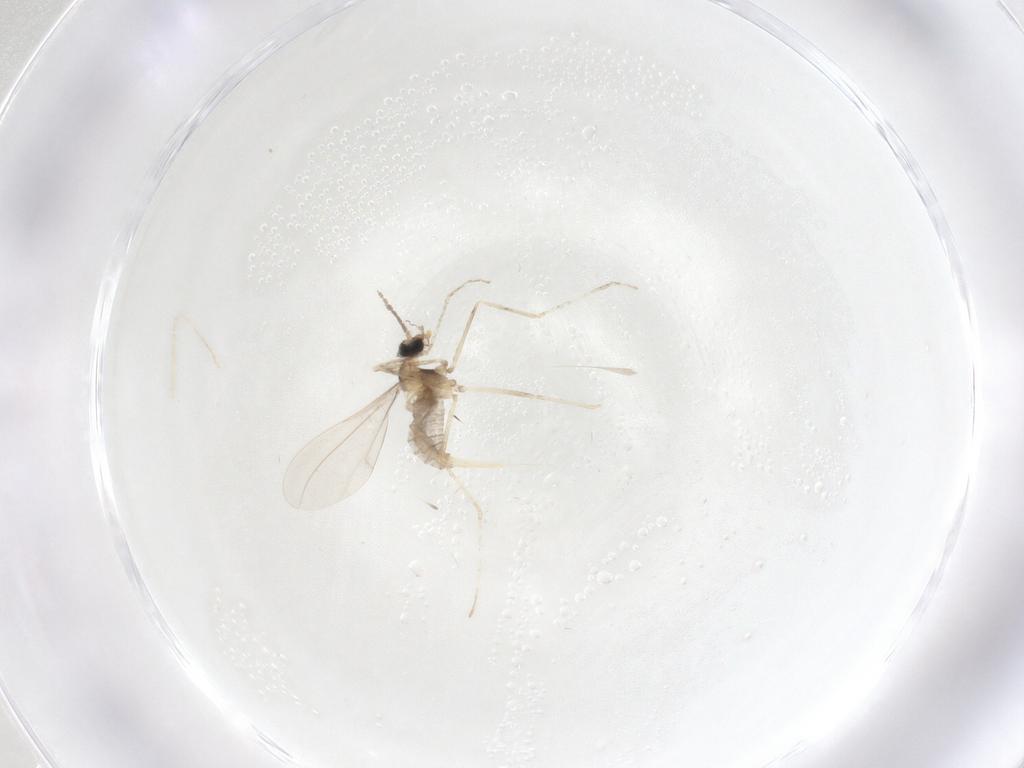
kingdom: Animalia
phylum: Arthropoda
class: Insecta
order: Diptera
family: Cecidomyiidae
